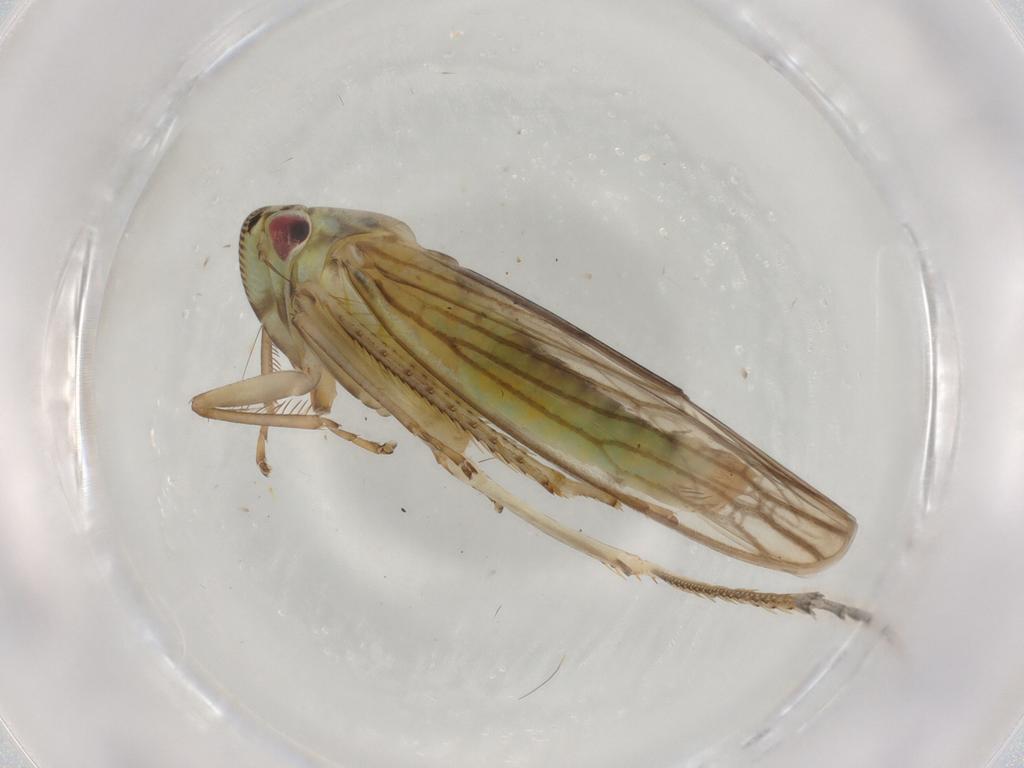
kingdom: Animalia
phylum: Arthropoda
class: Insecta
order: Hemiptera
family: Cicadellidae
